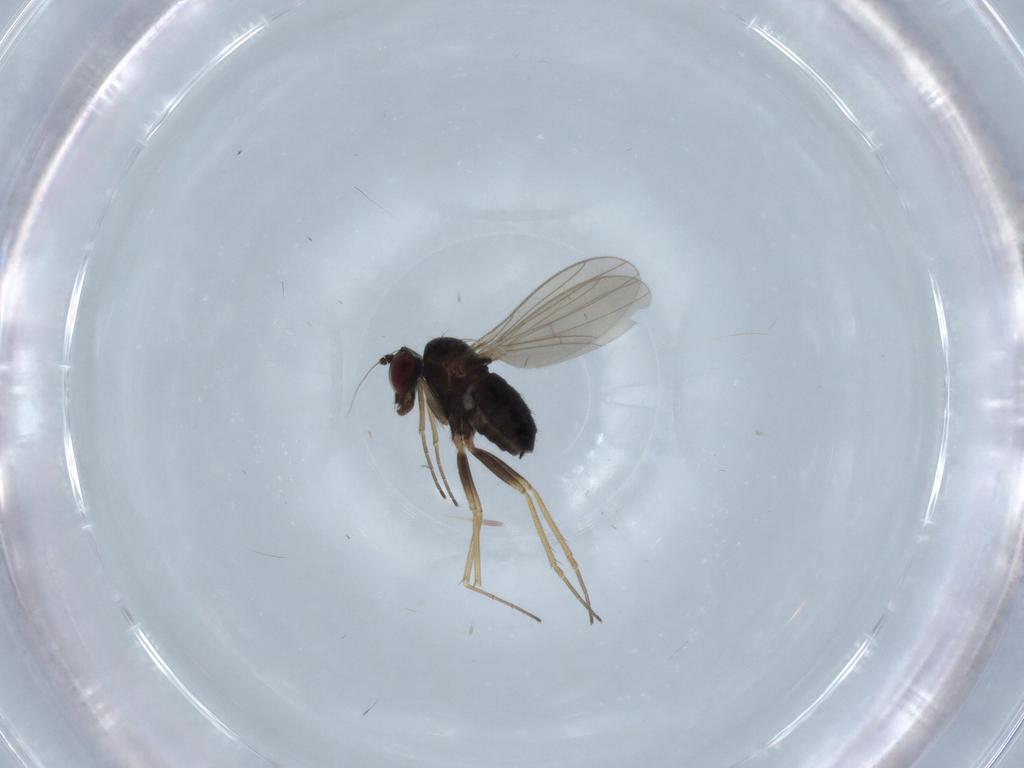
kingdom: Animalia
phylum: Arthropoda
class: Insecta
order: Diptera
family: Dolichopodidae
